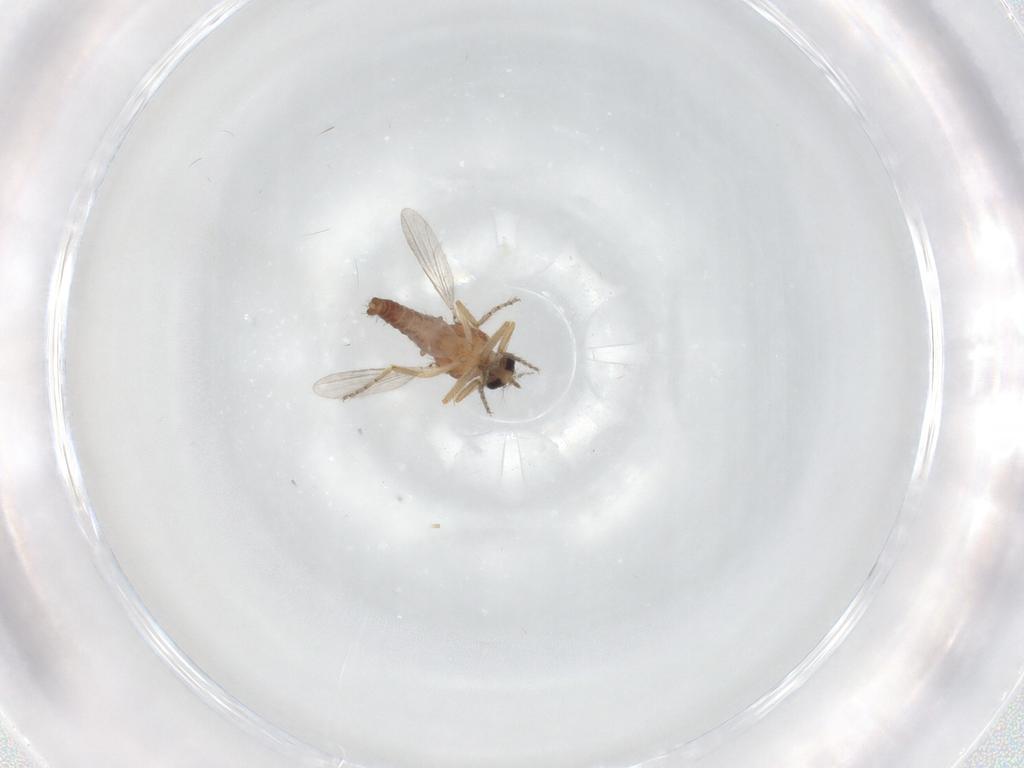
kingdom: Animalia
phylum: Arthropoda
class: Insecta
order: Diptera
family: Ceratopogonidae
